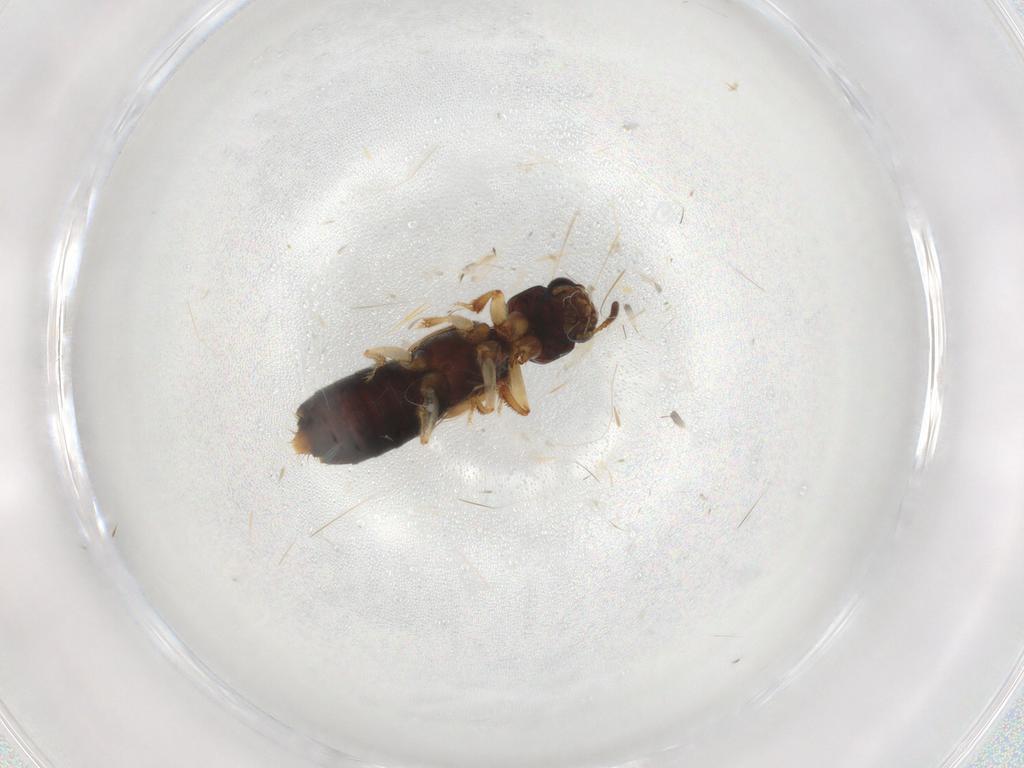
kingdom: Animalia
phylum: Arthropoda
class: Insecta
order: Coleoptera
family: Staphylinidae
